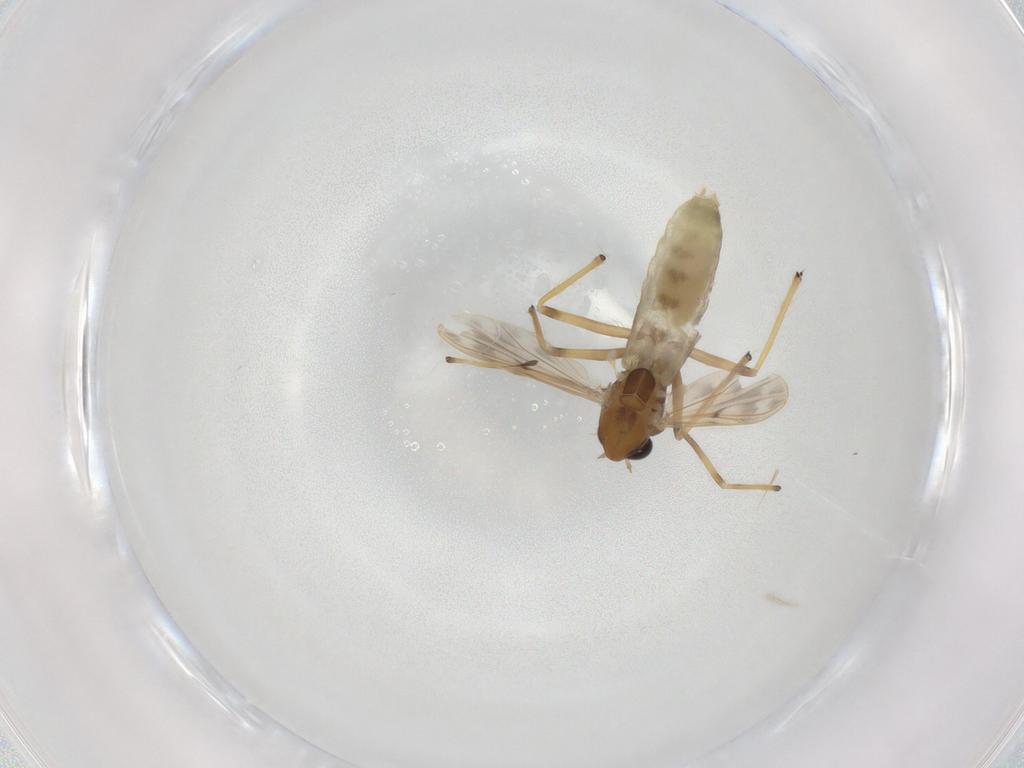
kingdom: Animalia
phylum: Arthropoda
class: Insecta
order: Diptera
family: Chironomidae
